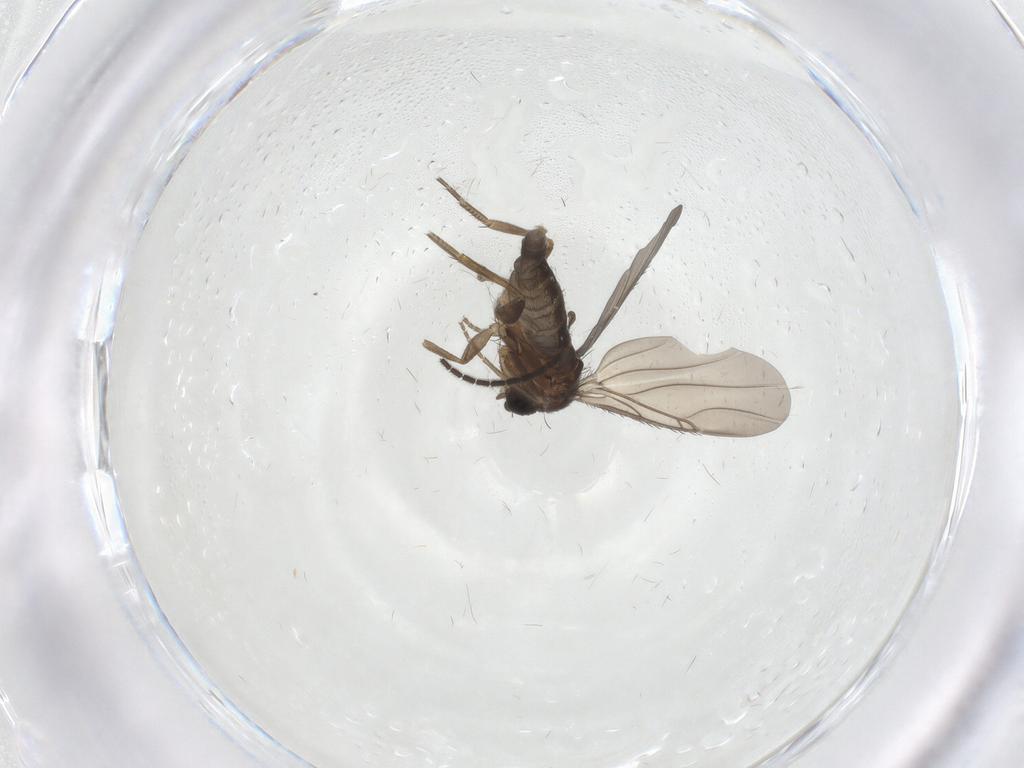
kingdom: Animalia
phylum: Arthropoda
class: Insecta
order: Diptera
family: Phoridae
